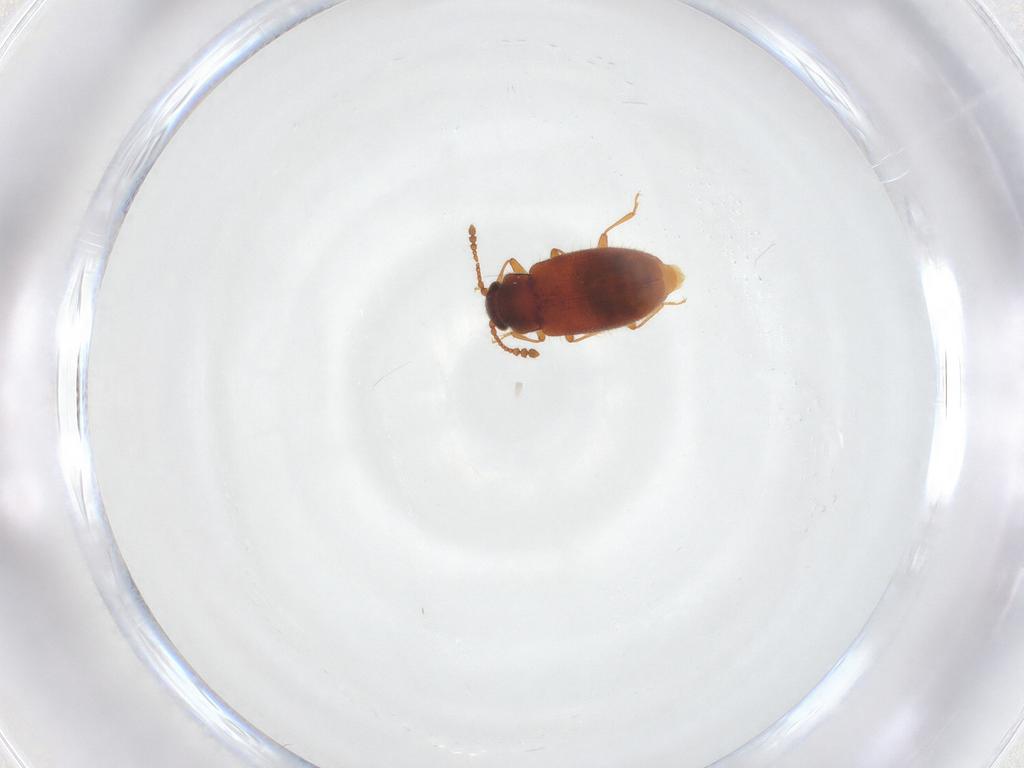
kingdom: Animalia
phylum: Arthropoda
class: Insecta
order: Coleoptera
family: Cryptophagidae
